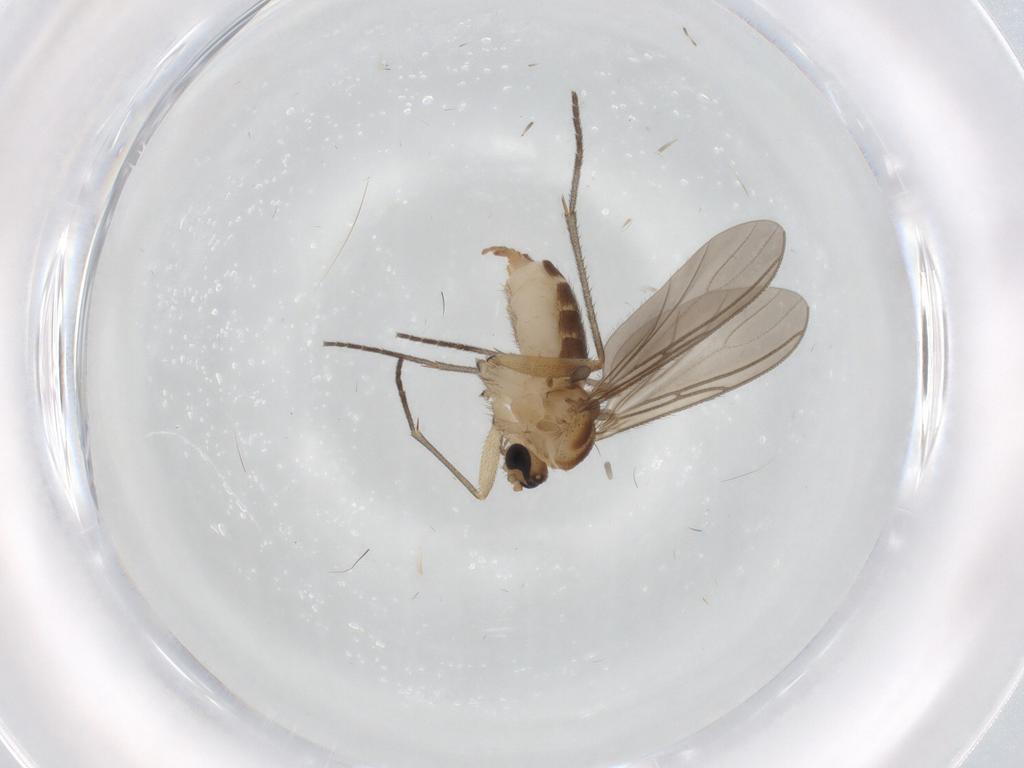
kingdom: Animalia
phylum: Arthropoda
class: Insecta
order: Diptera
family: Sciaridae
